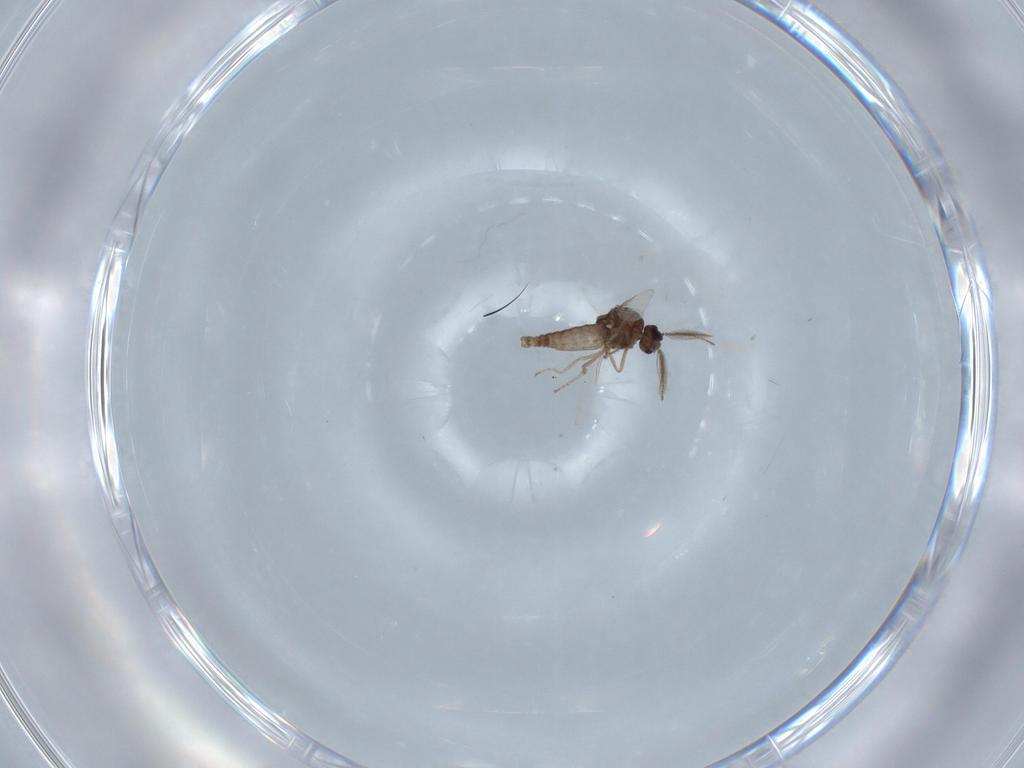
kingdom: Animalia
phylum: Arthropoda
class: Insecta
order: Diptera
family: Ceratopogonidae
